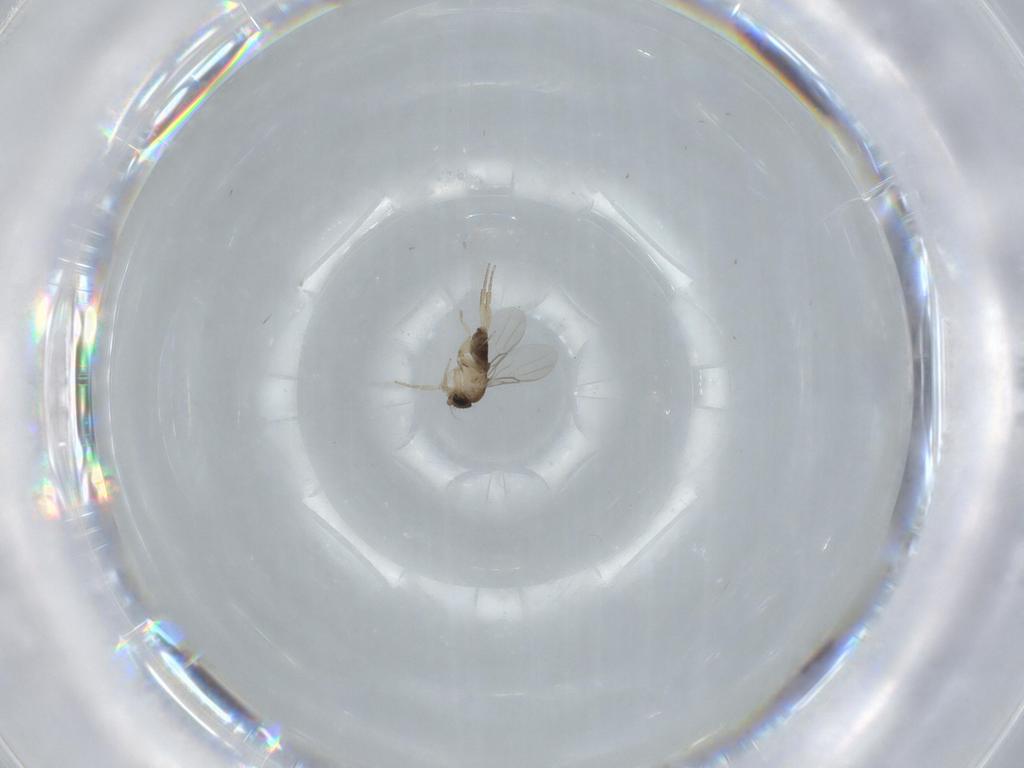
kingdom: Animalia
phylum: Arthropoda
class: Insecta
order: Diptera
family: Phoridae
